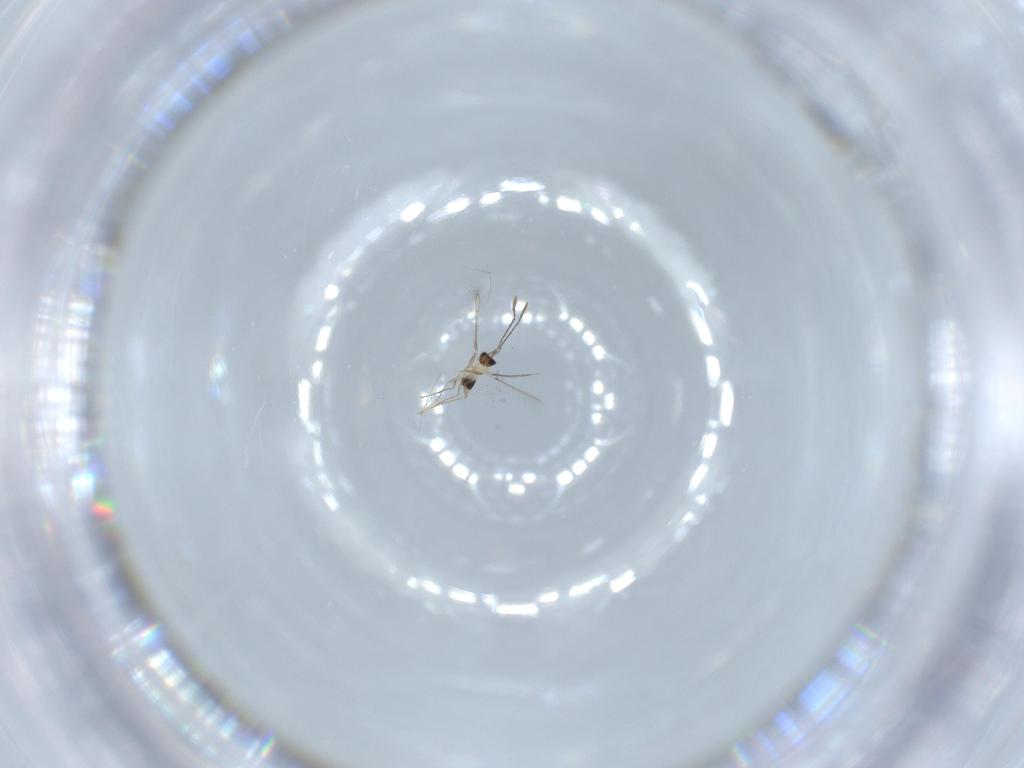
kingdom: Animalia
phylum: Arthropoda
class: Insecta
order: Hymenoptera
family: Mymaridae
